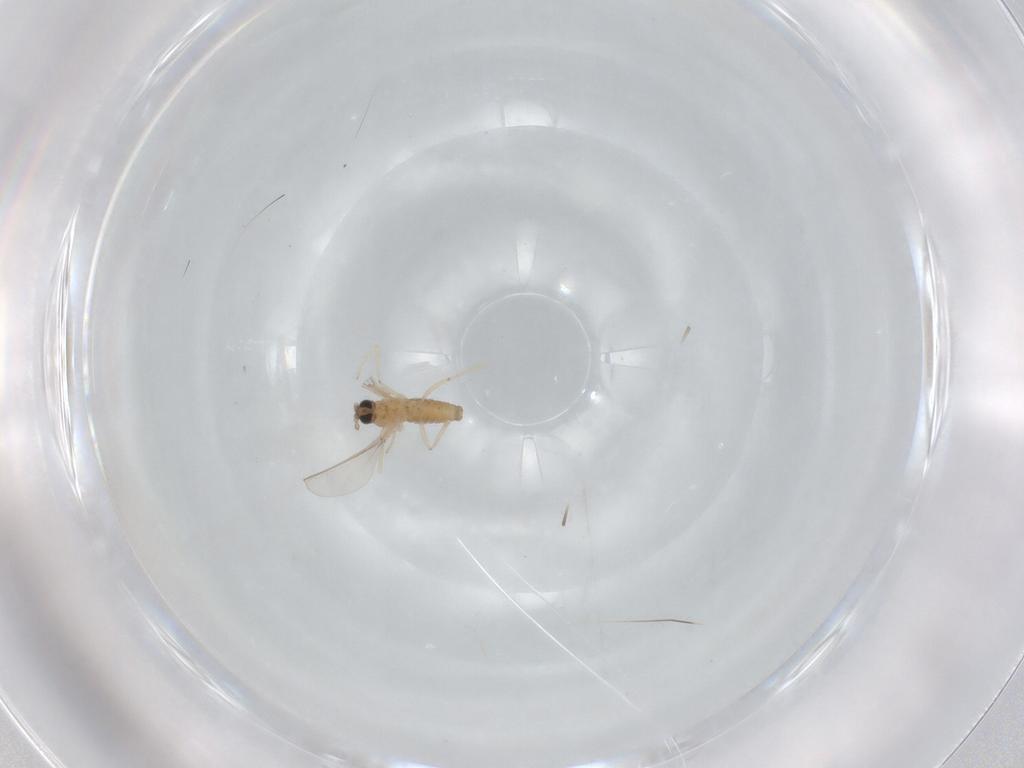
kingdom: Animalia
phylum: Arthropoda
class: Insecta
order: Diptera
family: Cecidomyiidae
